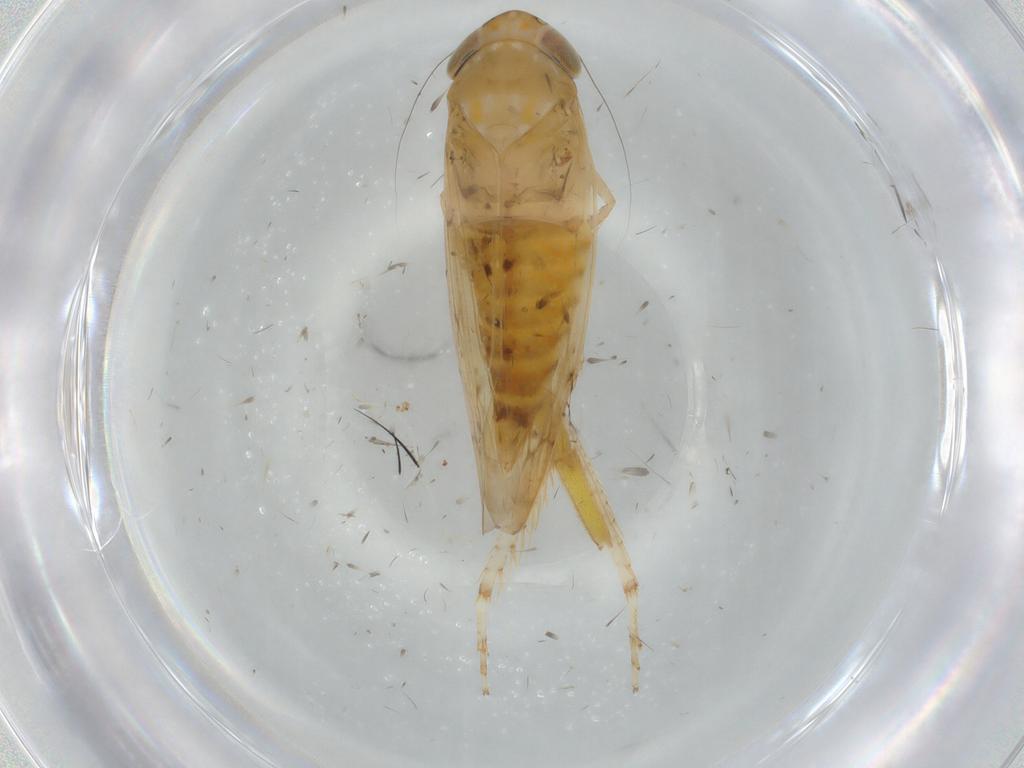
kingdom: Animalia
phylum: Arthropoda
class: Insecta
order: Hemiptera
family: Cicadellidae
